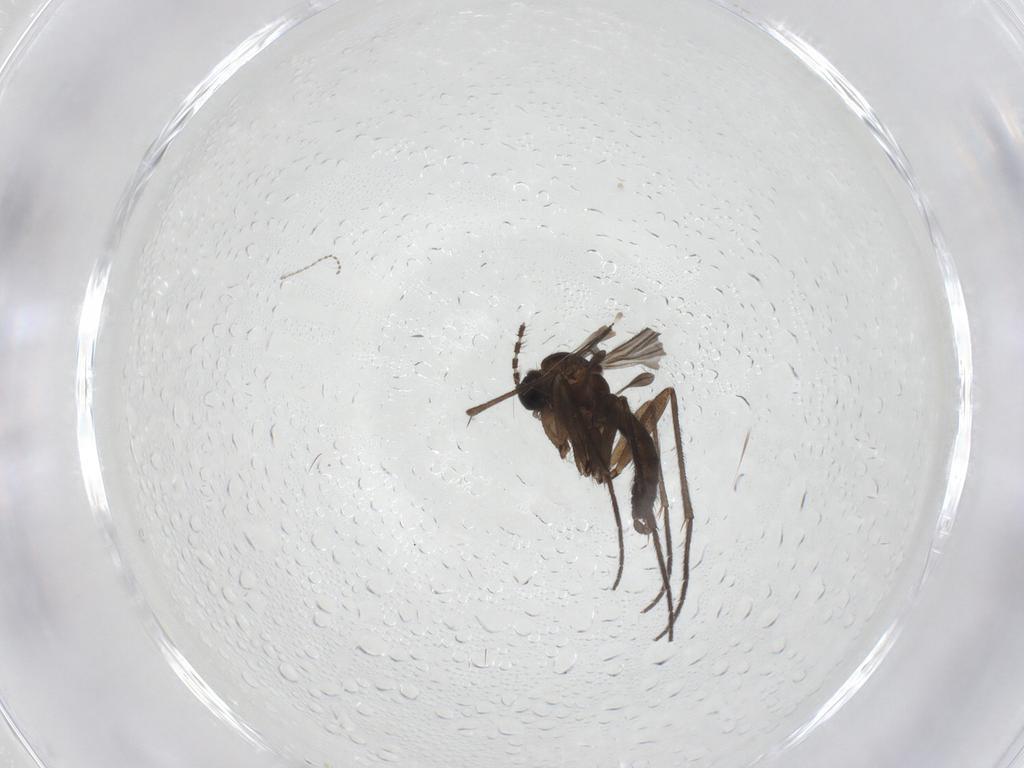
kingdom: Animalia
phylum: Arthropoda
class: Insecta
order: Diptera
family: Sciaridae
